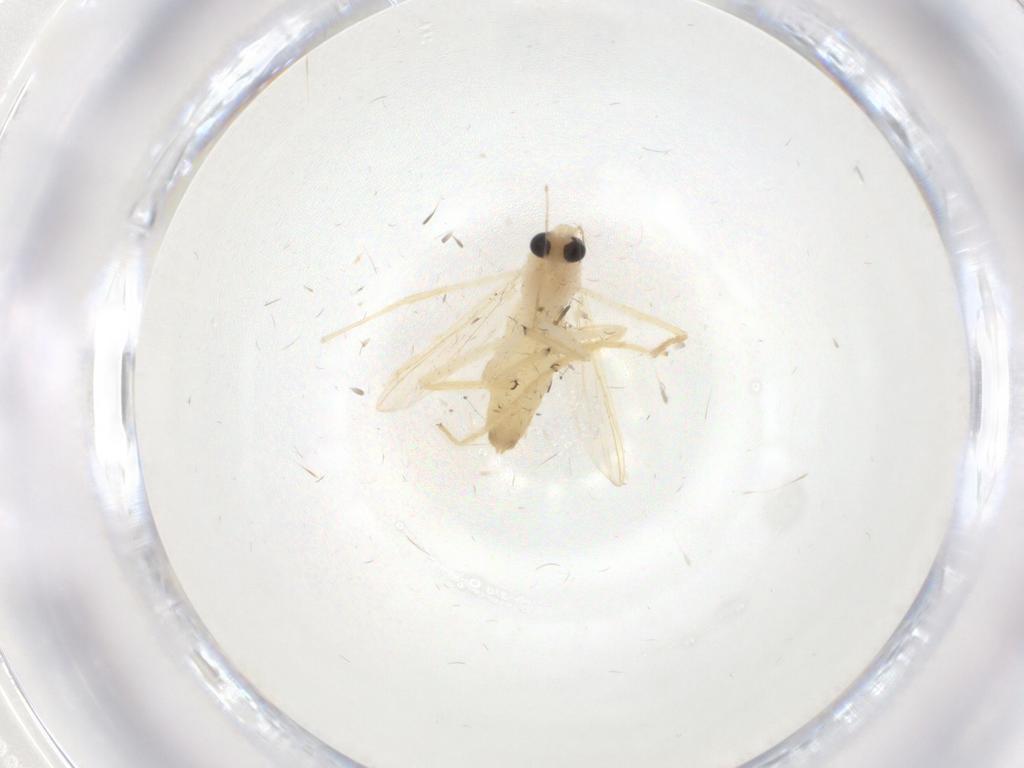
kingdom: Animalia
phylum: Arthropoda
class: Insecta
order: Diptera
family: Chironomidae
